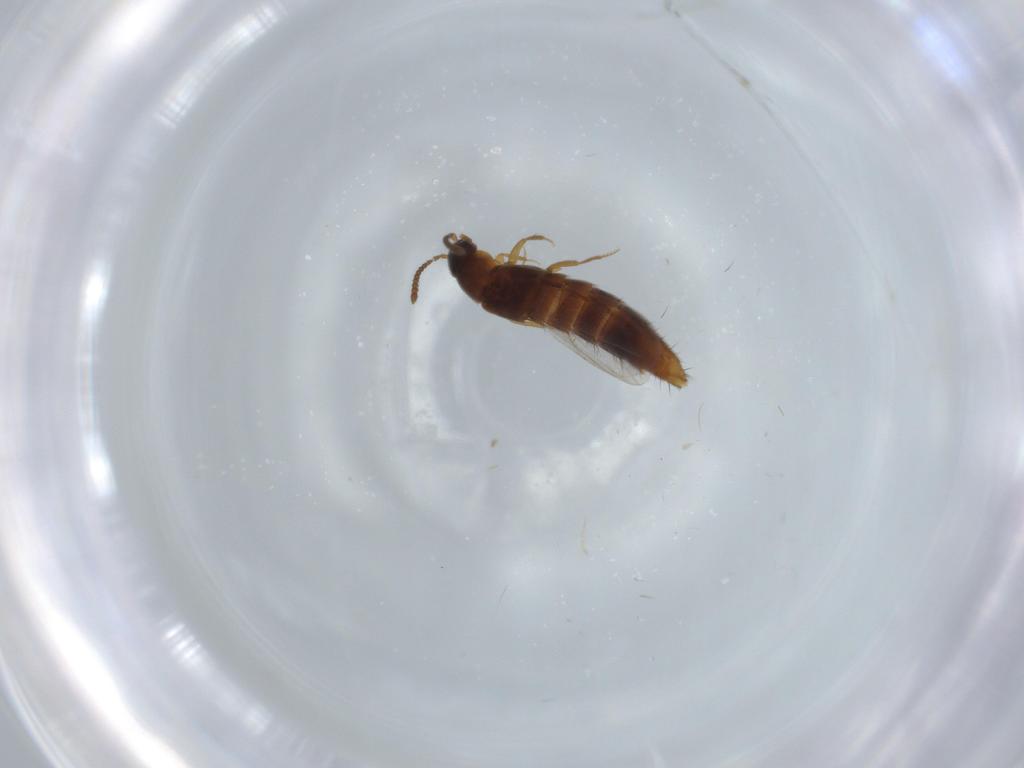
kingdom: Animalia
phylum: Arthropoda
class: Insecta
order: Coleoptera
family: Staphylinidae
